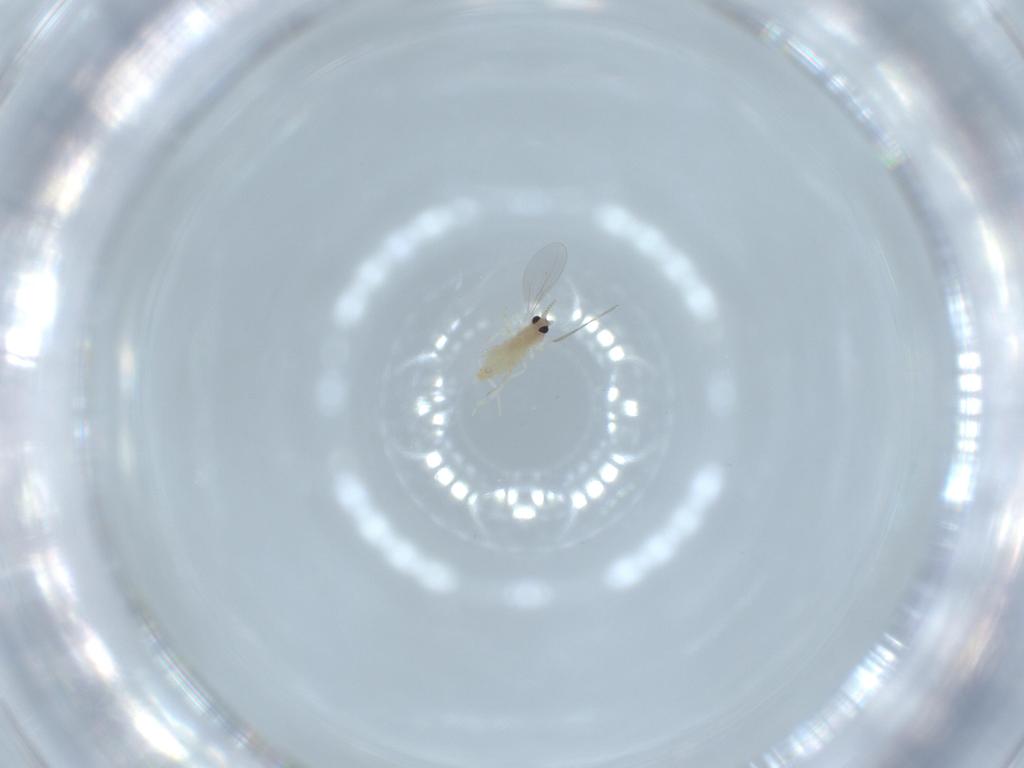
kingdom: Animalia
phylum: Arthropoda
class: Insecta
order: Diptera
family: Cecidomyiidae
